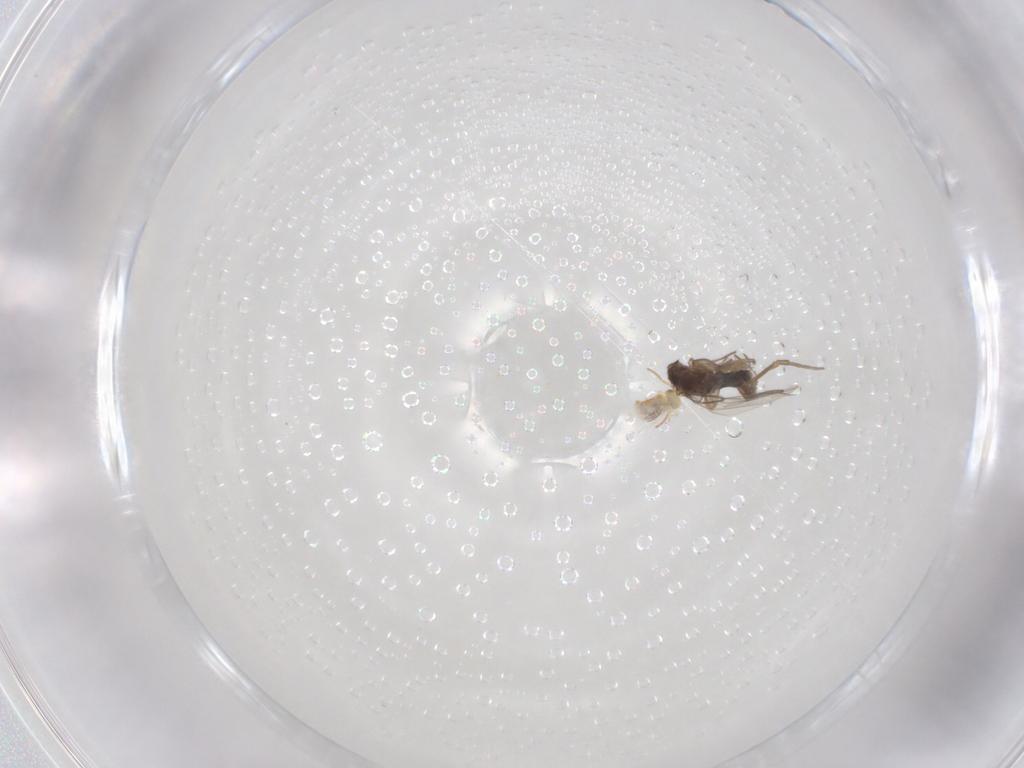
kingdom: Animalia
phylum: Arthropoda
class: Insecta
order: Diptera
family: Phoridae
